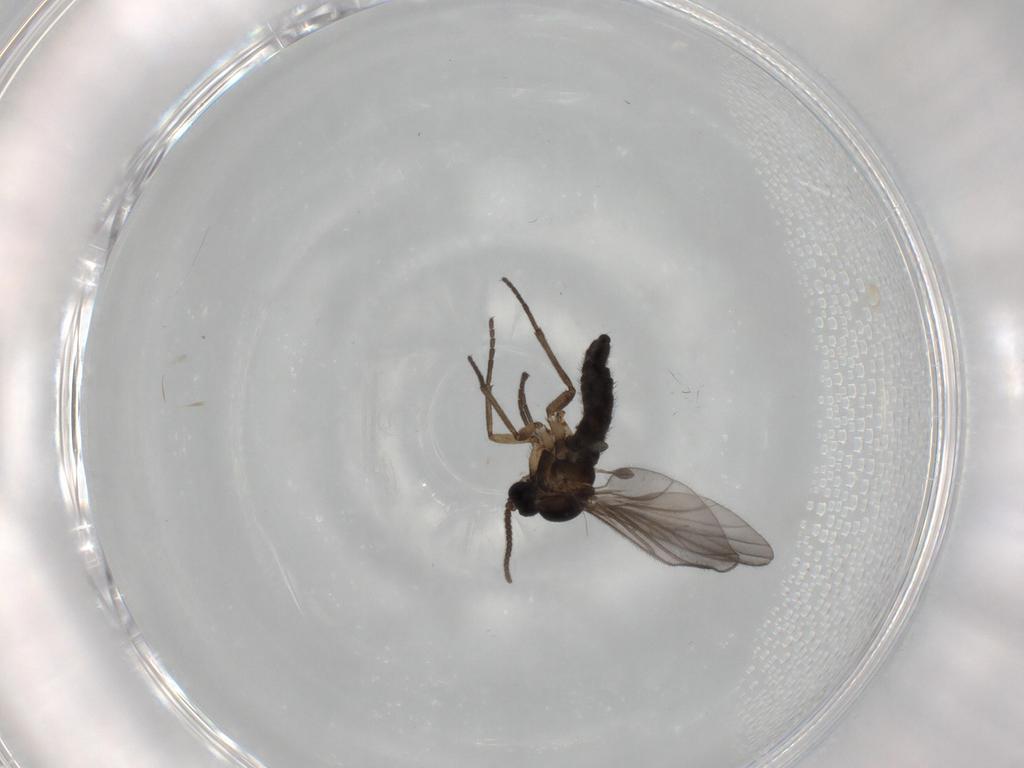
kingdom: Animalia
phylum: Arthropoda
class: Insecta
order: Diptera
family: Sciaridae
